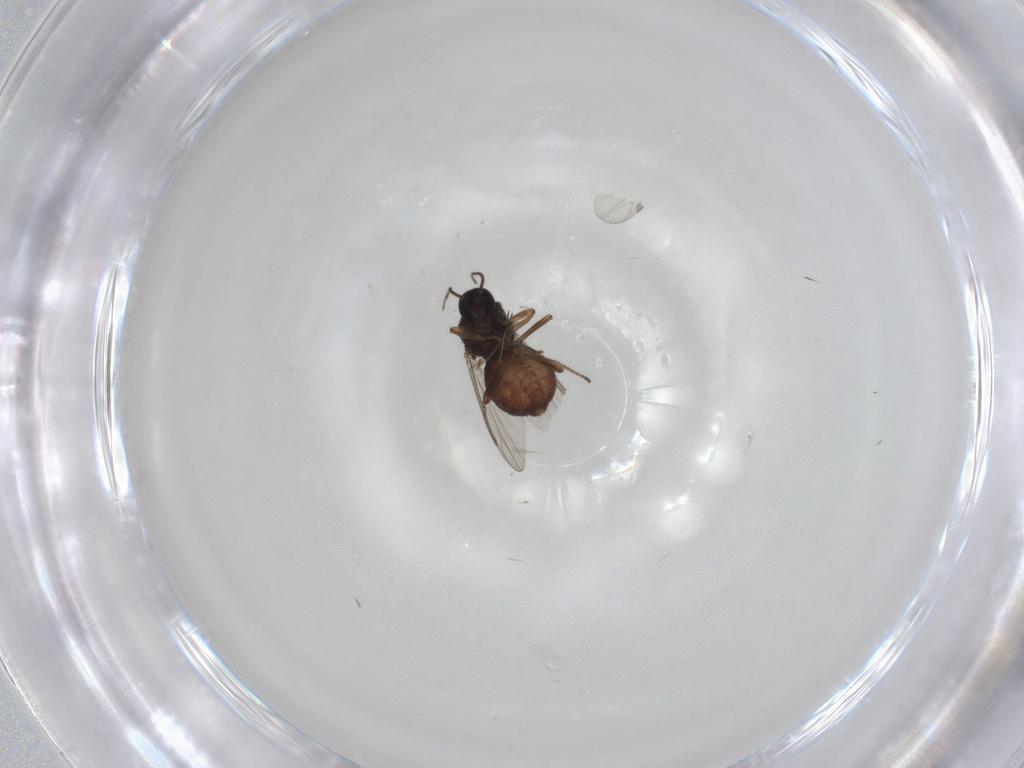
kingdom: Animalia
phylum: Arthropoda
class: Insecta
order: Diptera
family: Ceratopogonidae
